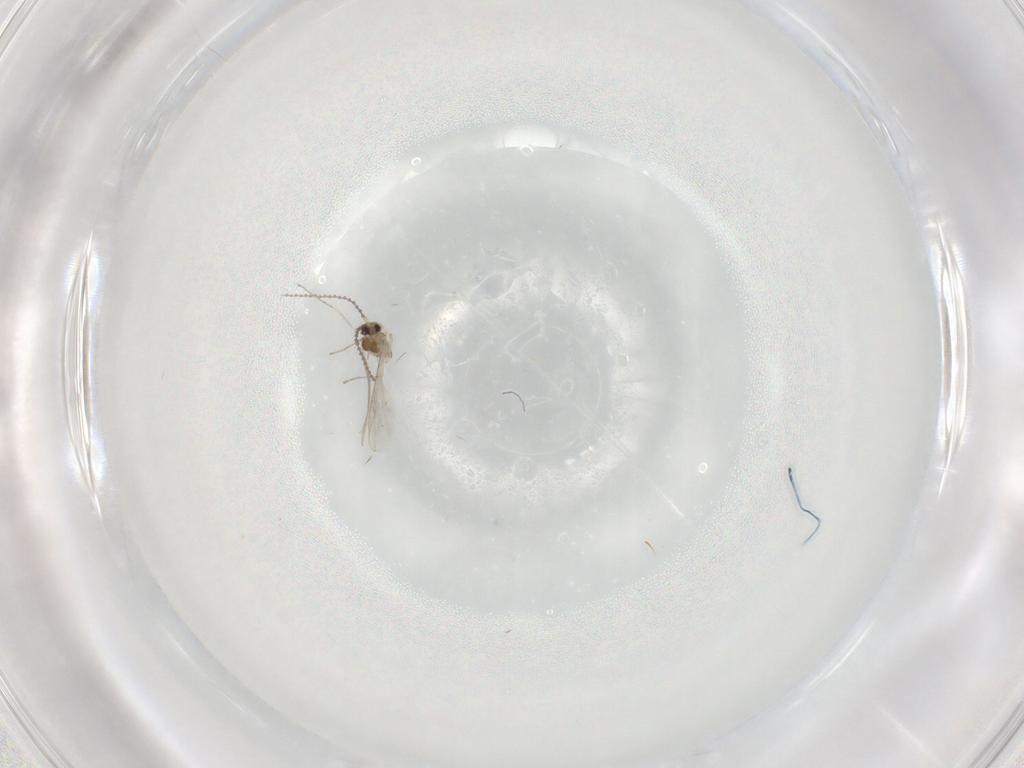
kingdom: Animalia
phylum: Arthropoda
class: Insecta
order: Diptera
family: Cecidomyiidae
